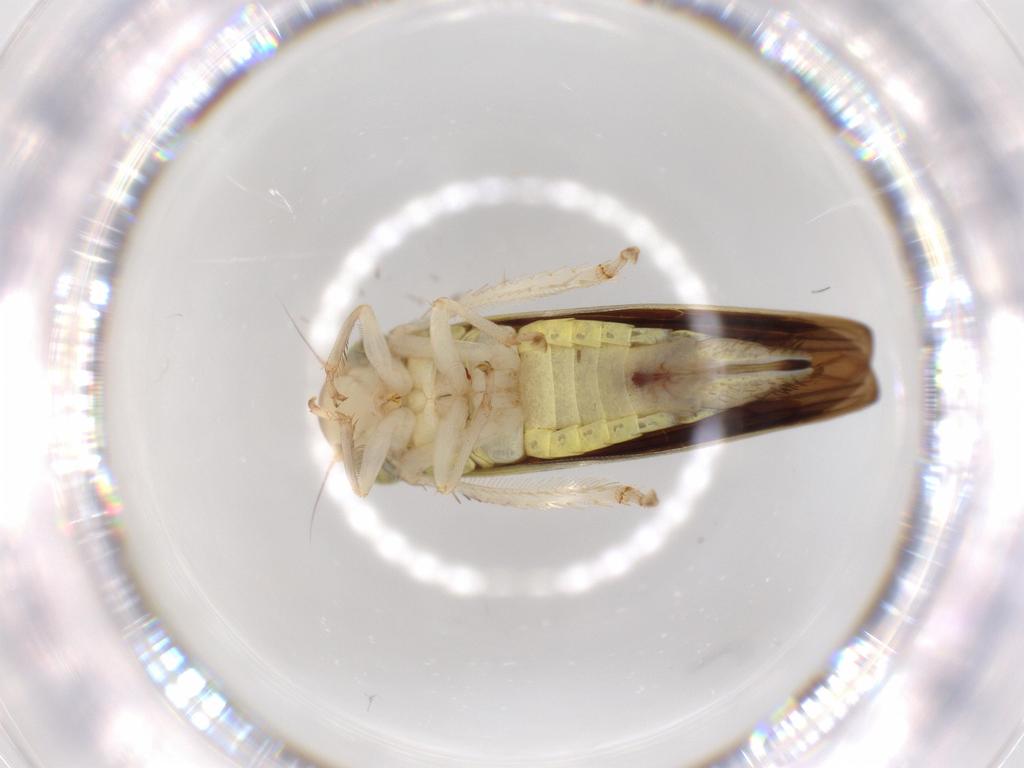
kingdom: Animalia
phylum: Arthropoda
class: Insecta
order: Hemiptera
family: Cicadellidae
